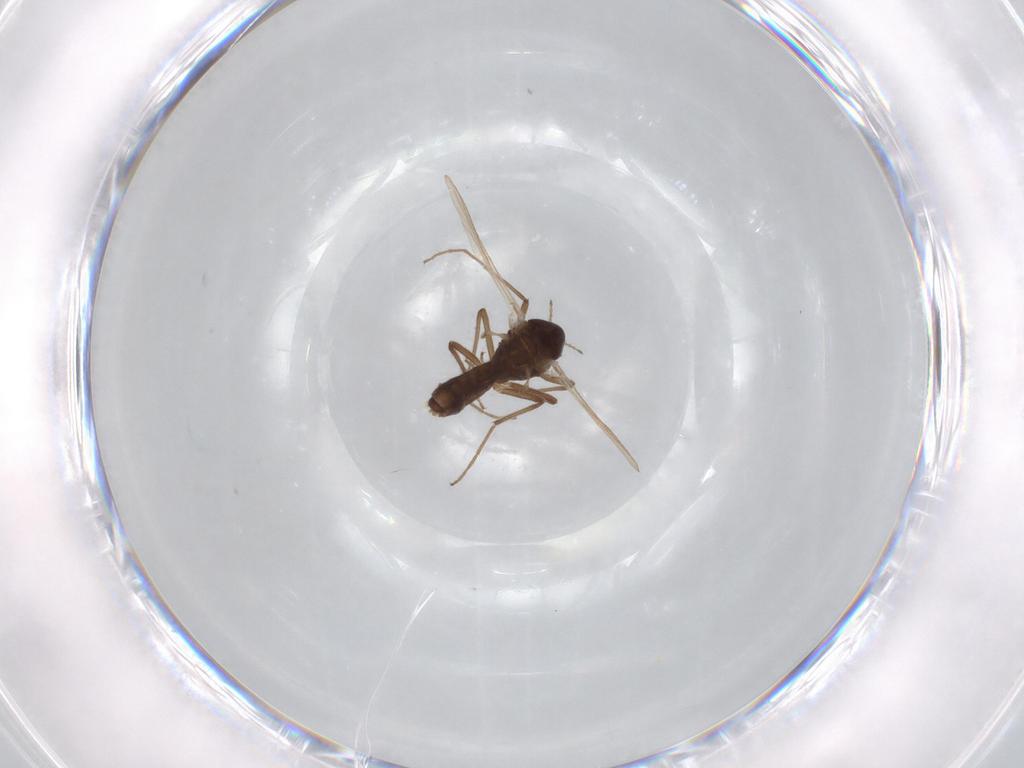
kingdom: Animalia
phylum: Arthropoda
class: Insecta
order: Diptera
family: Chironomidae
